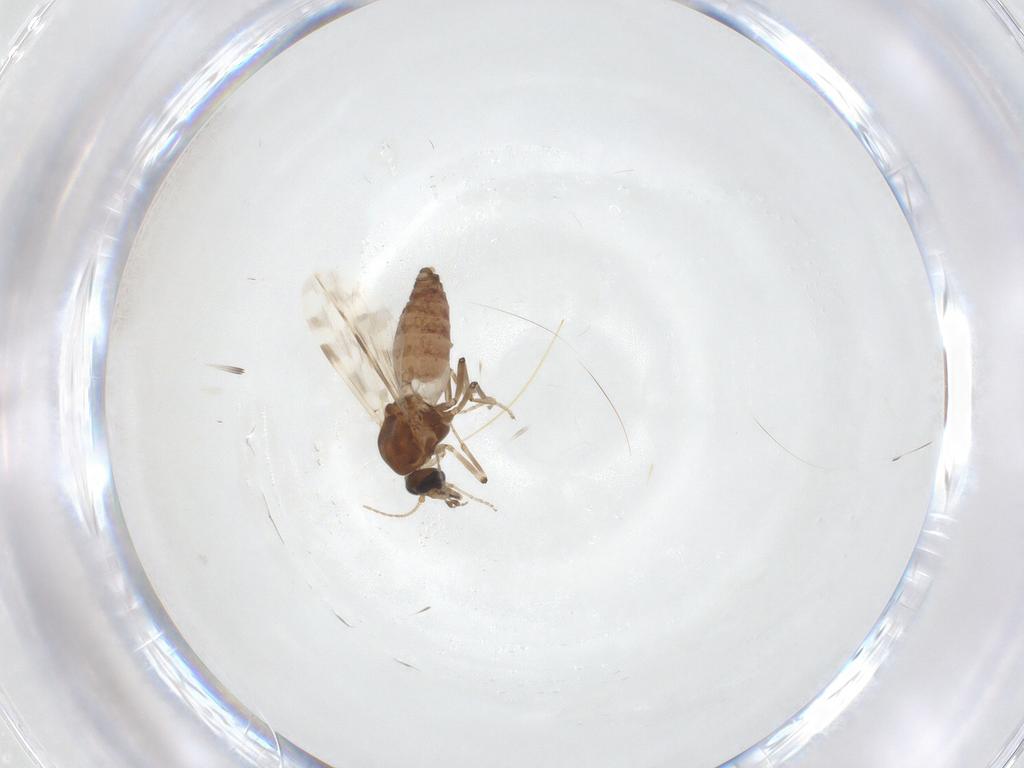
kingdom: Animalia
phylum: Arthropoda
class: Insecta
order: Diptera
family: Ceratopogonidae
